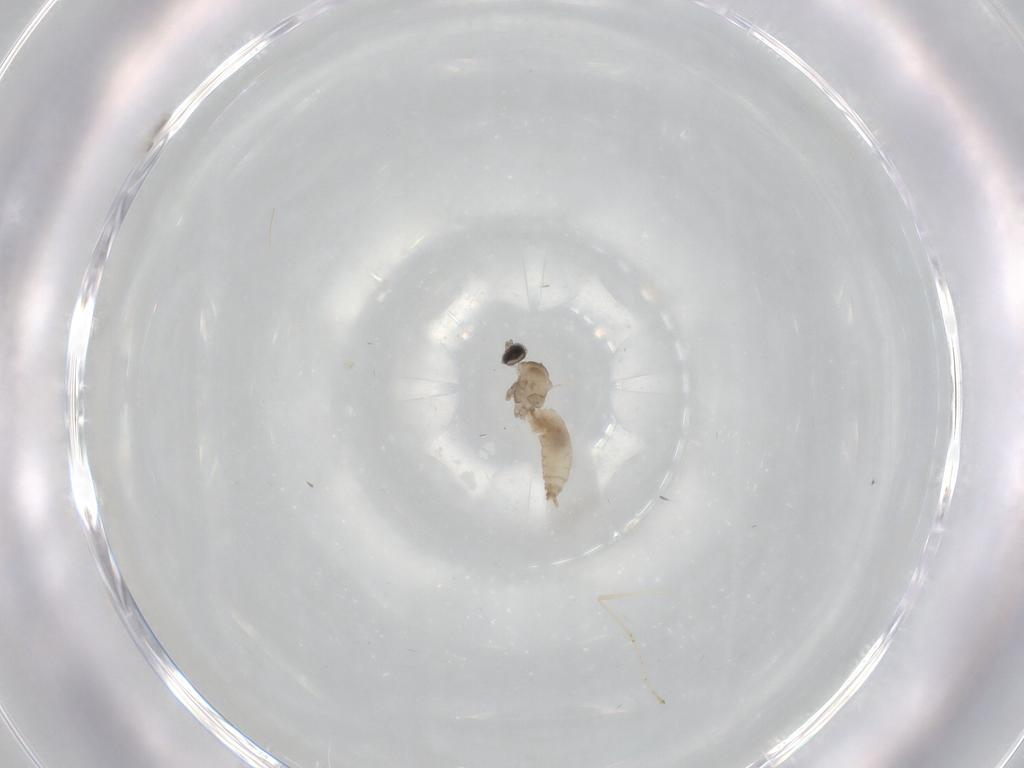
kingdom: Animalia
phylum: Arthropoda
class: Insecta
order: Diptera
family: Cecidomyiidae
